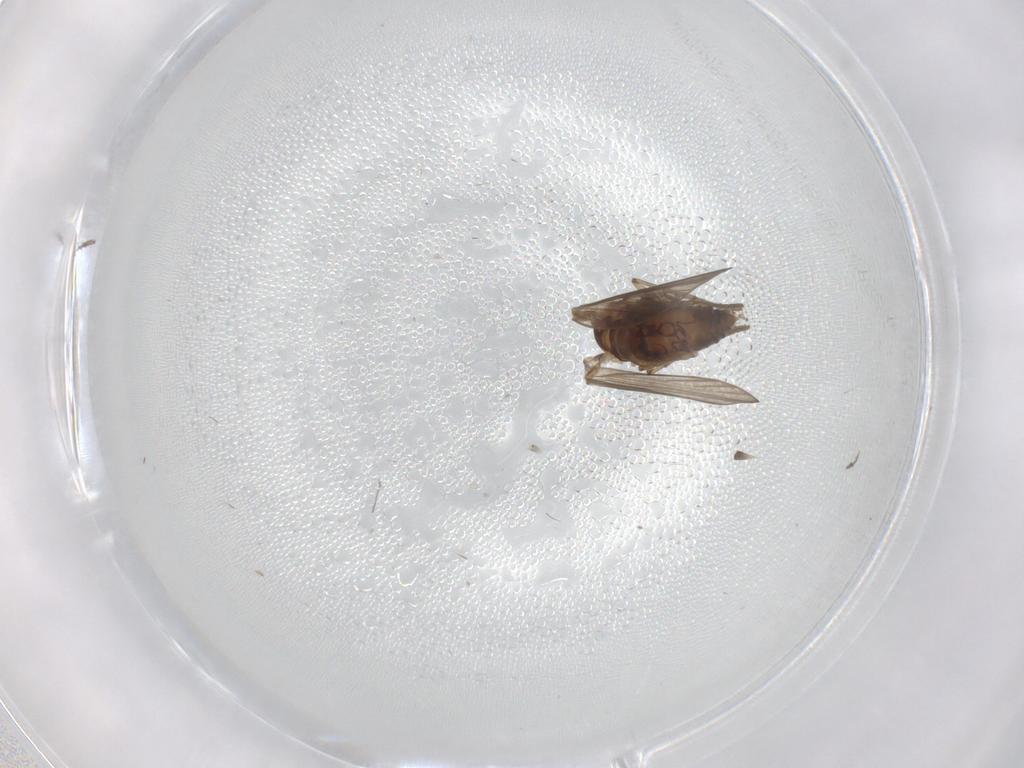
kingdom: Animalia
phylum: Arthropoda
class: Insecta
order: Diptera
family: Psychodidae
